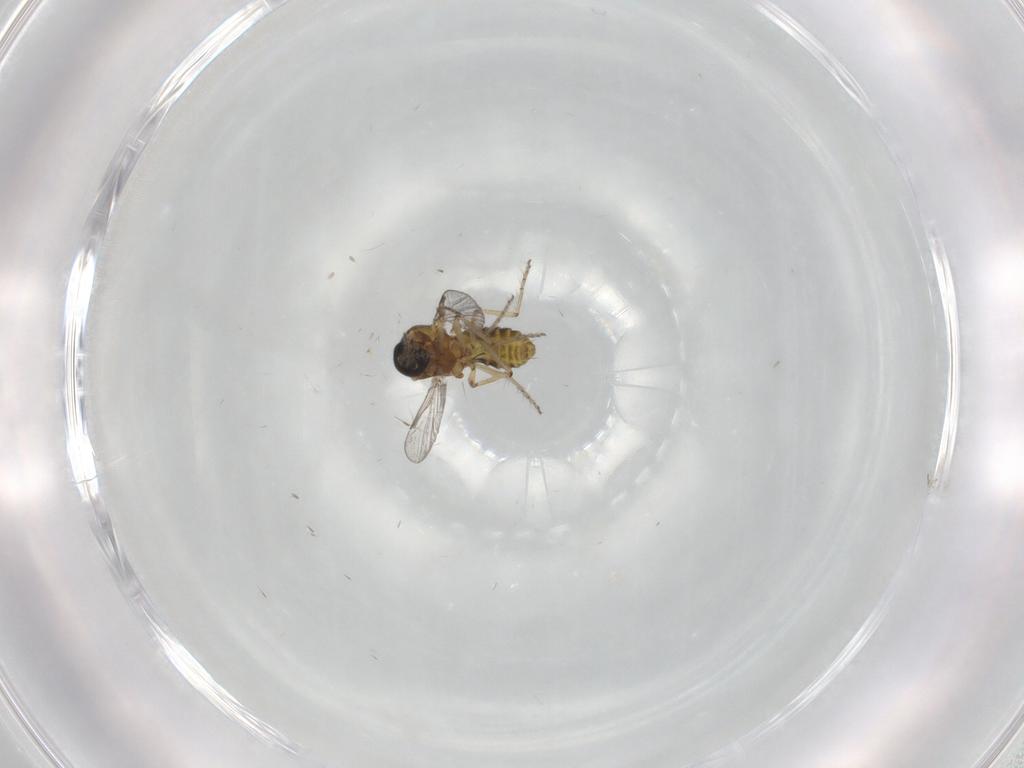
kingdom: Animalia
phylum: Arthropoda
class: Insecta
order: Diptera
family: Ceratopogonidae
